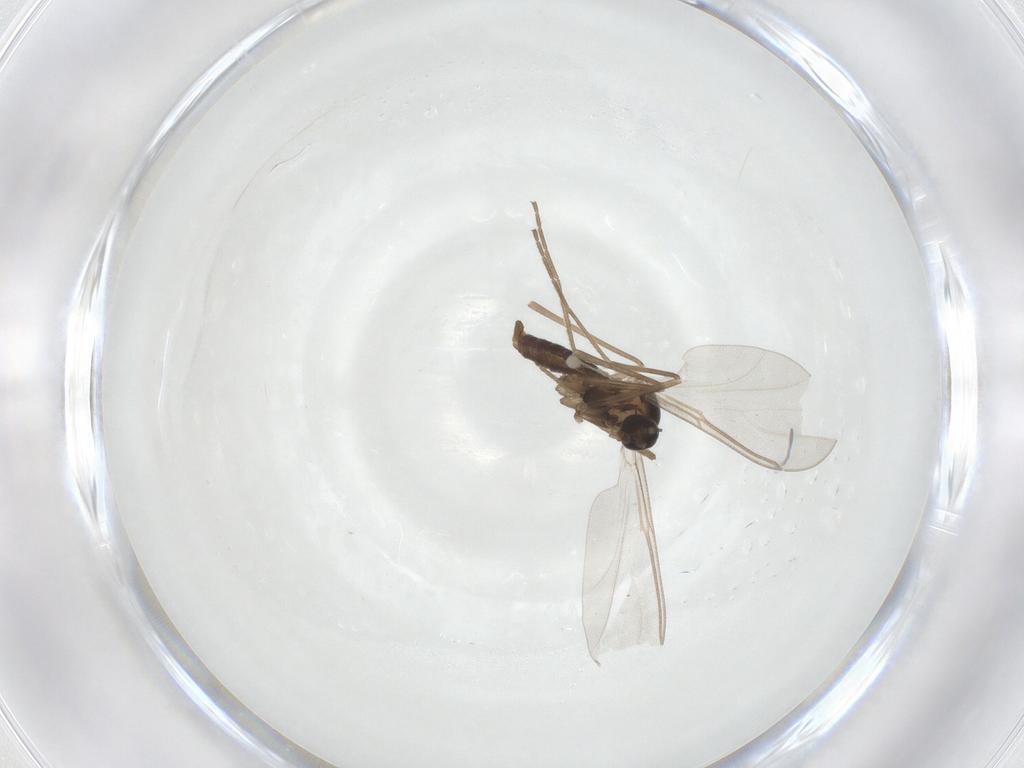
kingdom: Animalia
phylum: Arthropoda
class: Insecta
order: Diptera
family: Cecidomyiidae
